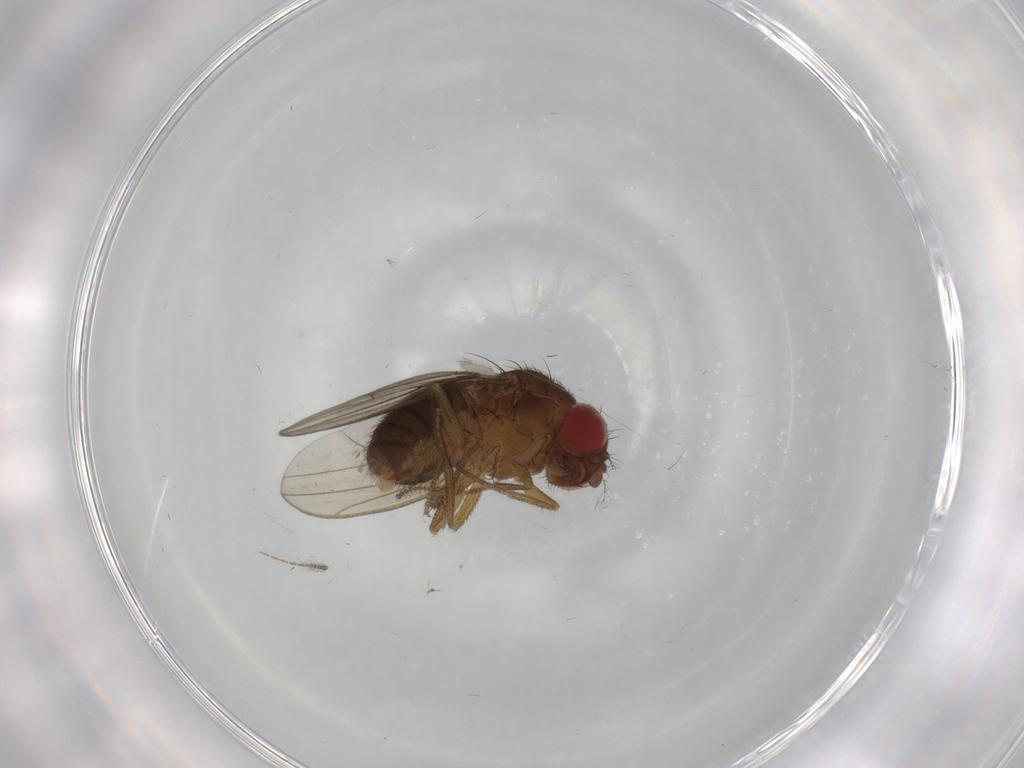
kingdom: Animalia
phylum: Arthropoda
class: Insecta
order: Diptera
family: Drosophilidae
